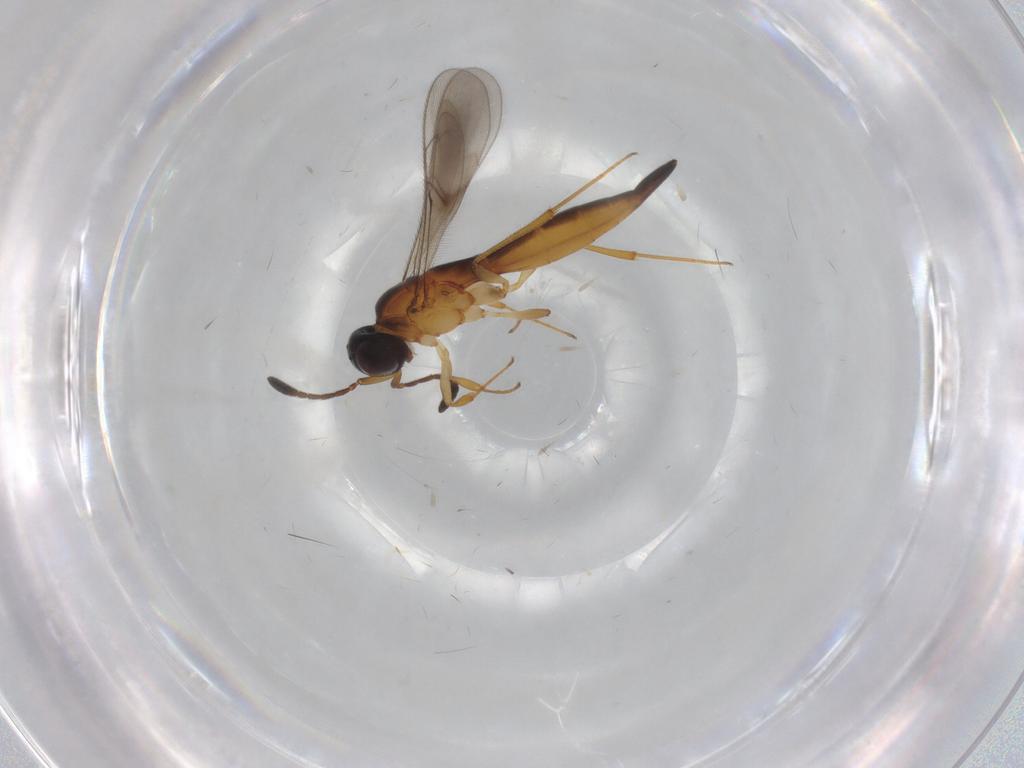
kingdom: Animalia
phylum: Arthropoda
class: Insecta
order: Hymenoptera
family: Scelionidae
